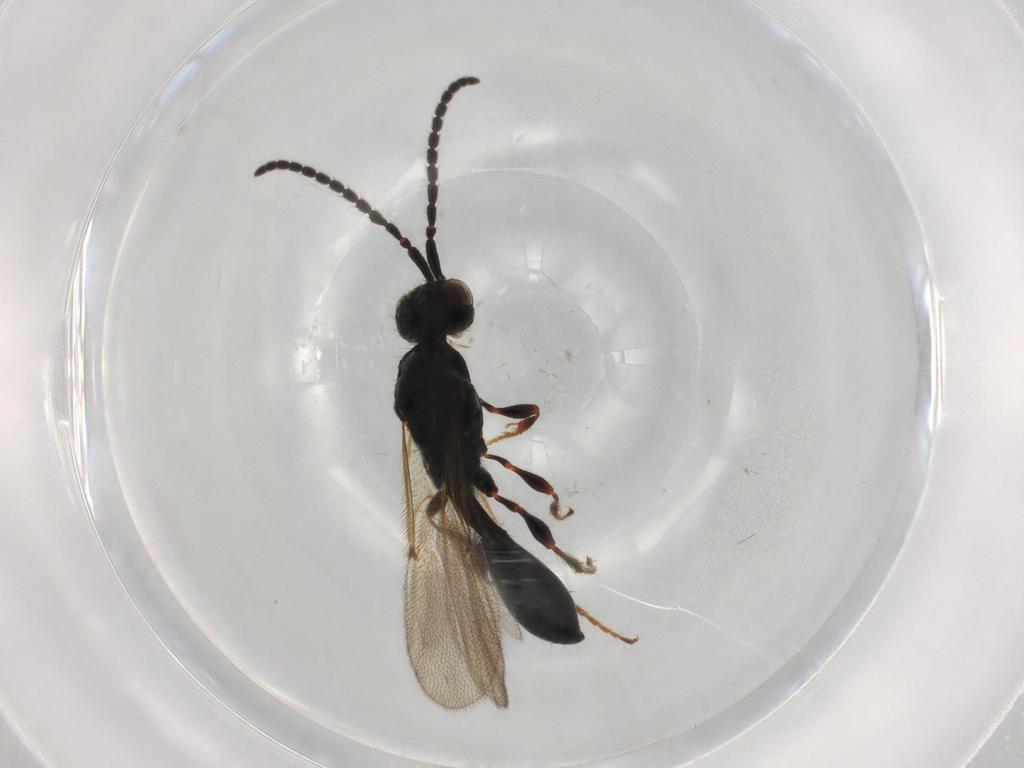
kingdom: Animalia
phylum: Arthropoda
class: Insecta
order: Hymenoptera
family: Diapriidae
